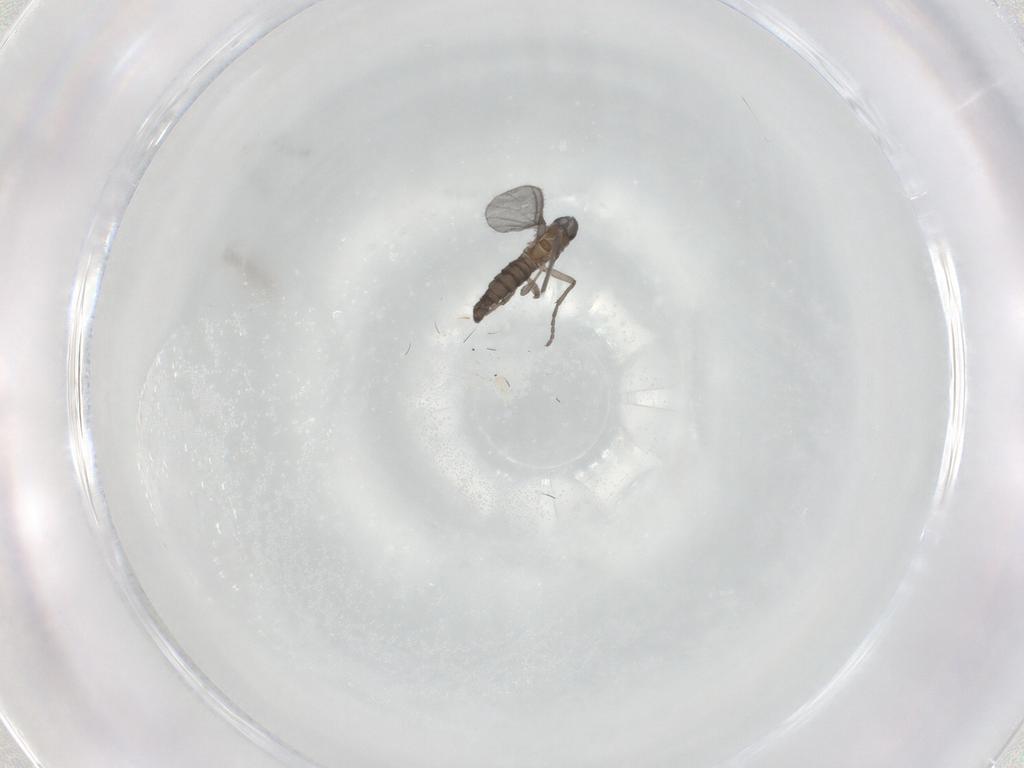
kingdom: Animalia
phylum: Arthropoda
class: Insecta
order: Diptera
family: Sciaridae
